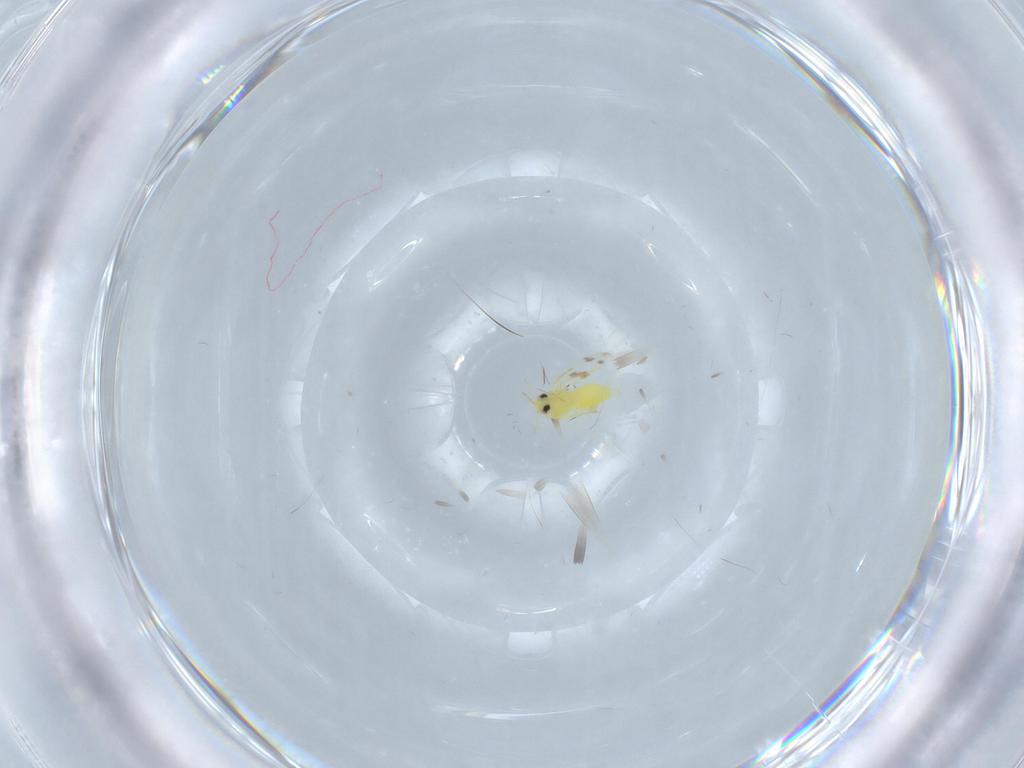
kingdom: Animalia
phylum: Arthropoda
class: Insecta
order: Hemiptera
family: Aleyrodidae
